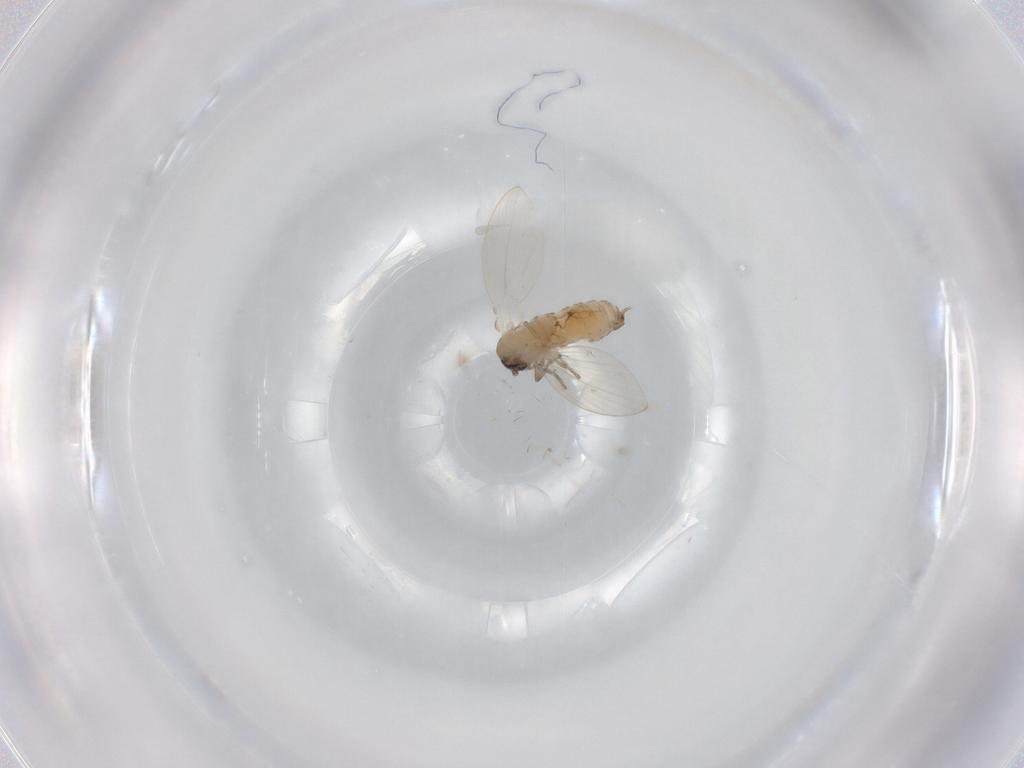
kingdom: Animalia
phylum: Arthropoda
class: Insecta
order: Diptera
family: Psychodidae
